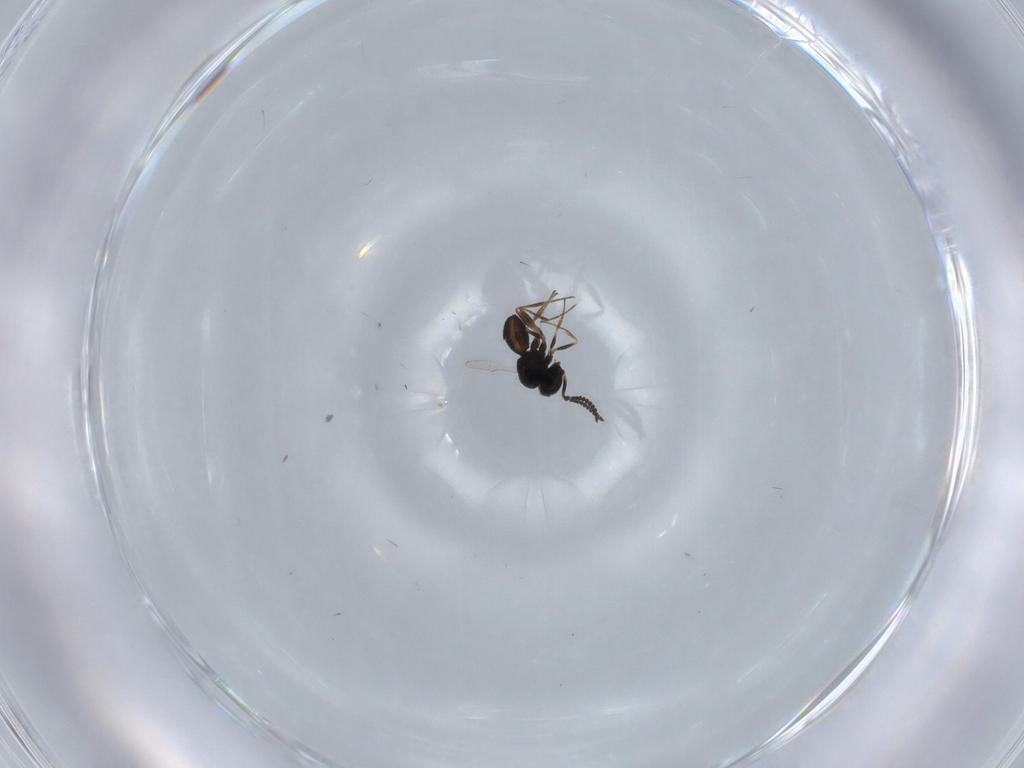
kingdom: Animalia
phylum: Arthropoda
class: Insecta
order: Hymenoptera
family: Scelionidae
